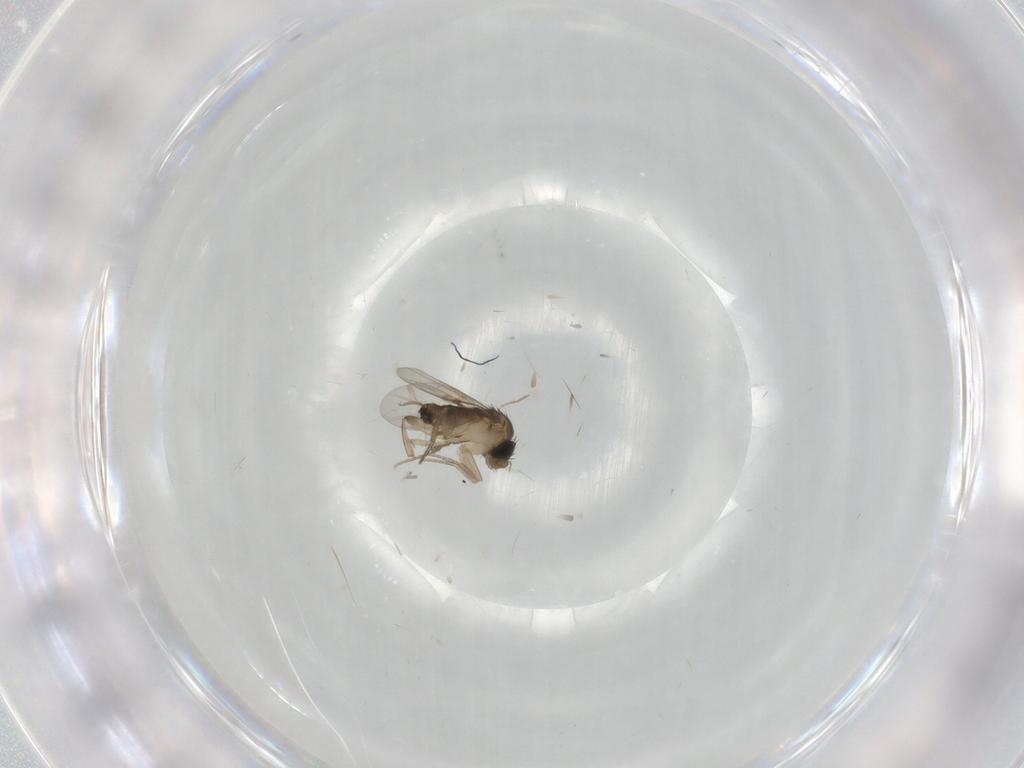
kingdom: Animalia
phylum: Arthropoda
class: Insecta
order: Diptera
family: Phoridae
